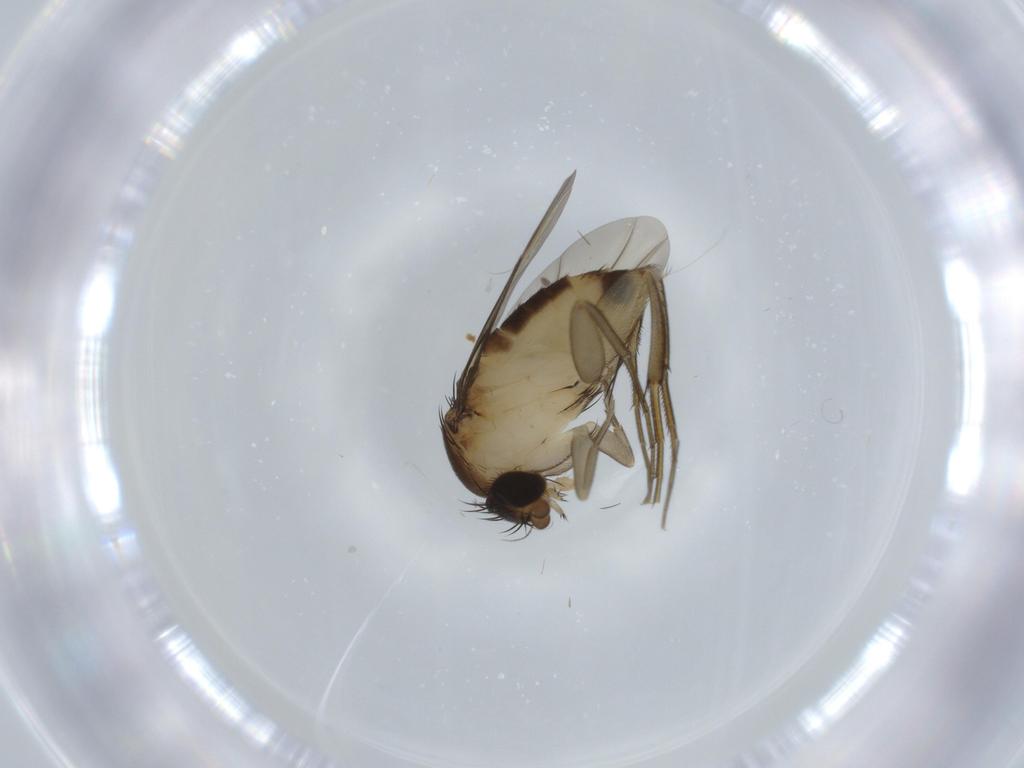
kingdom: Animalia
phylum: Arthropoda
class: Insecta
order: Diptera
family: Phoridae
